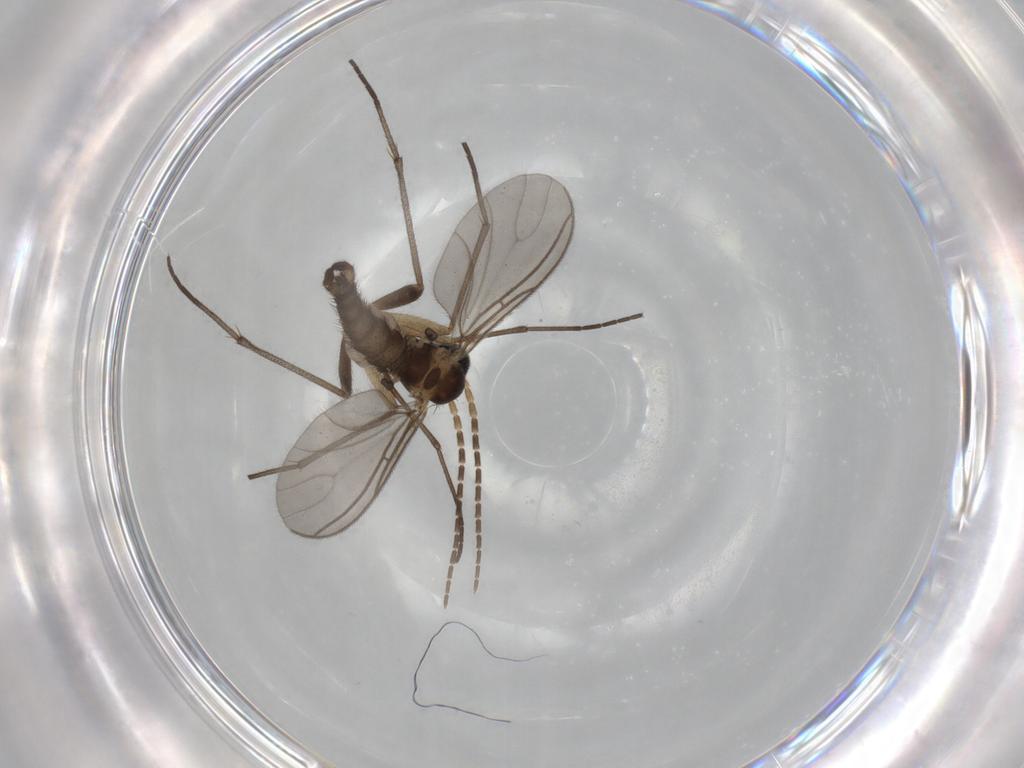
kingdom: Animalia
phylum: Arthropoda
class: Insecta
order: Diptera
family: Sciaridae
